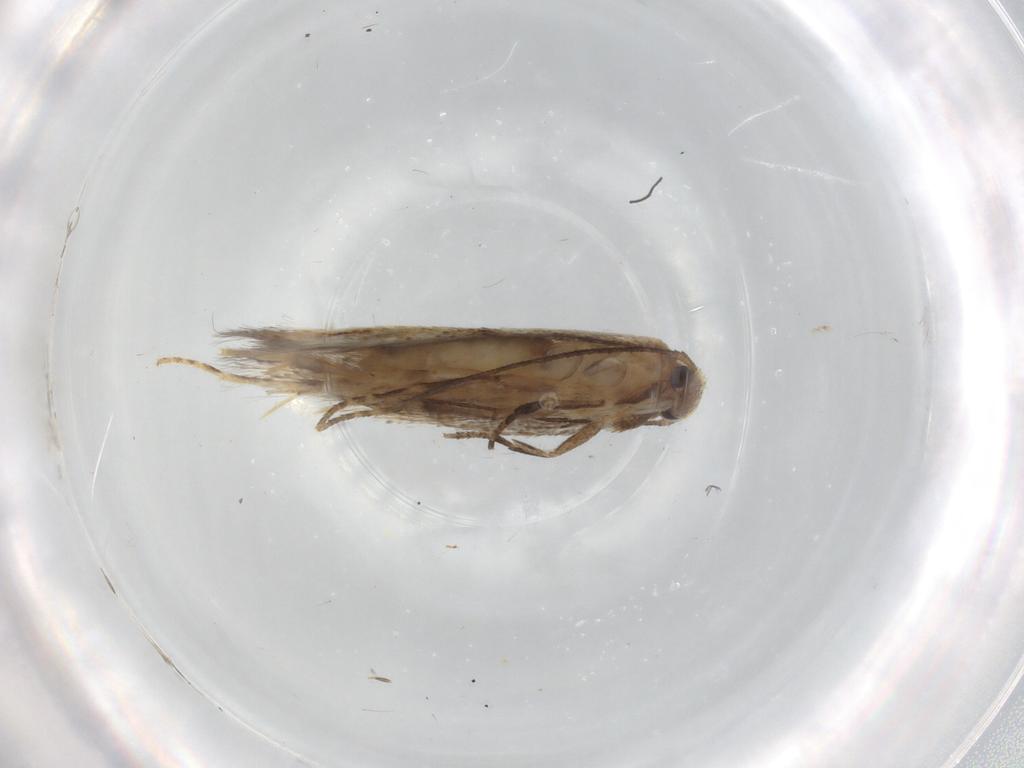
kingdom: Animalia
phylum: Arthropoda
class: Insecta
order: Lepidoptera
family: Elachistidae
